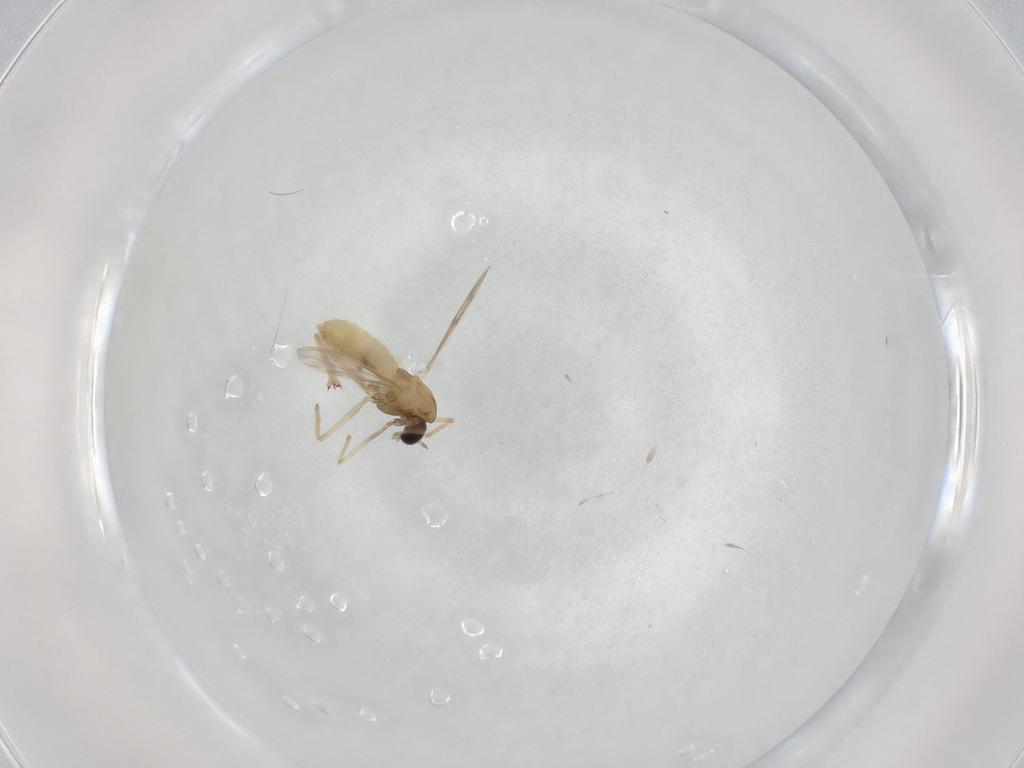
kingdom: Animalia
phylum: Arthropoda
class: Insecta
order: Diptera
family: Chironomidae
